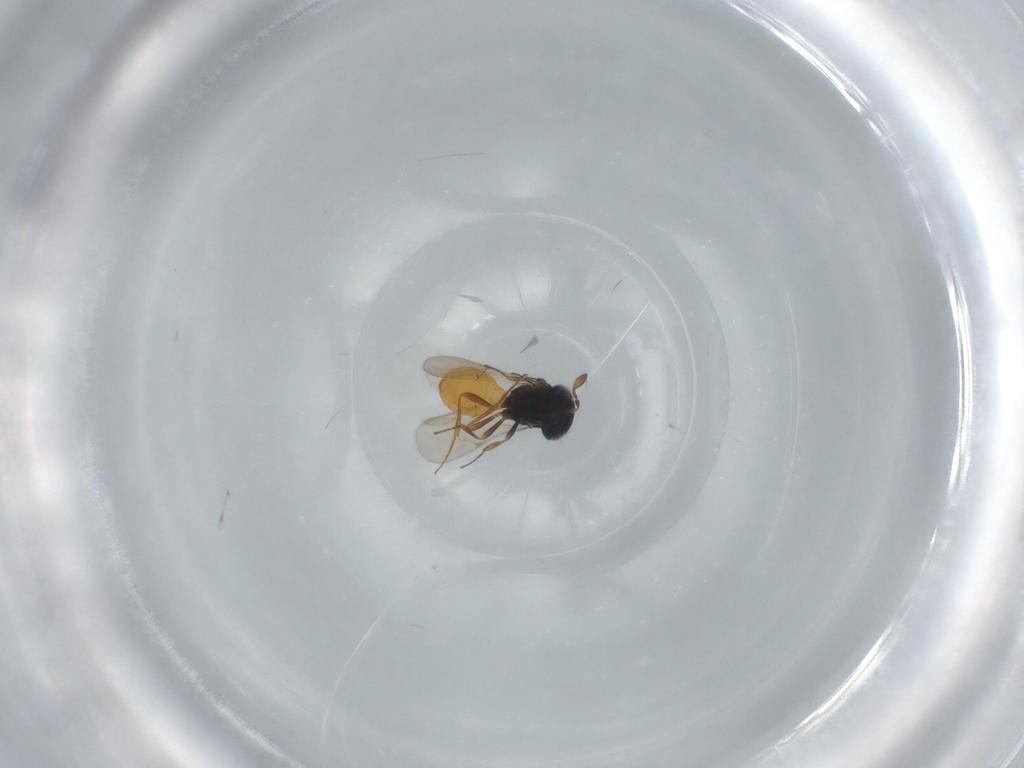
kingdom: Animalia
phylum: Arthropoda
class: Insecta
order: Hymenoptera
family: Scelionidae
